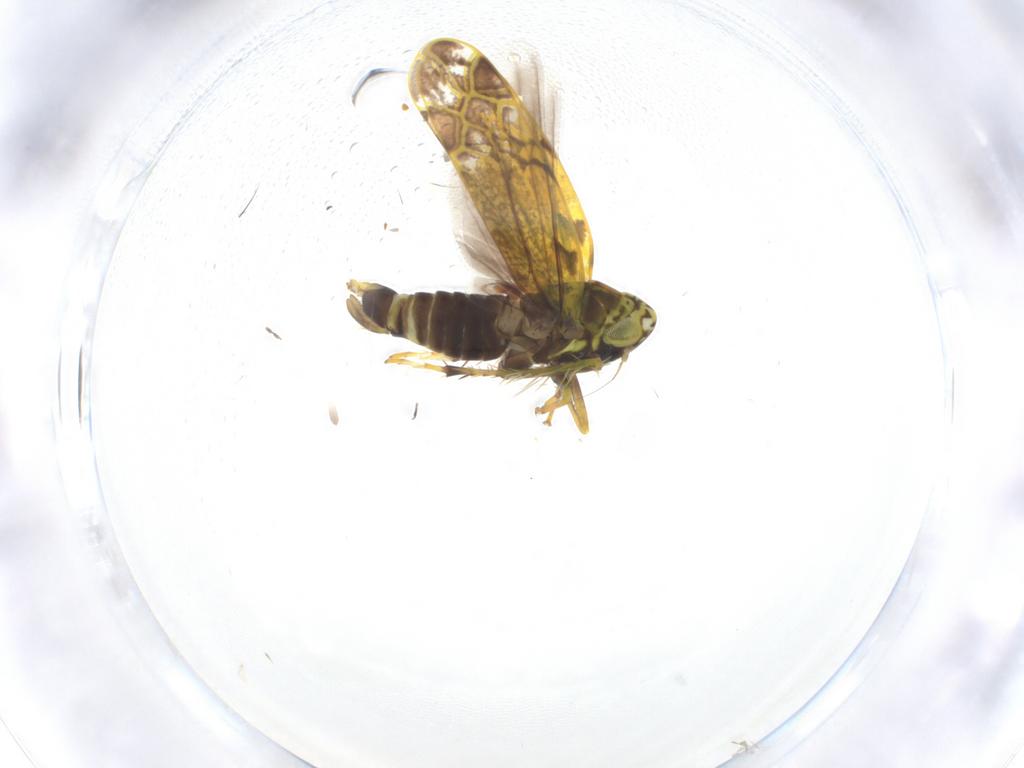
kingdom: Animalia
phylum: Arthropoda
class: Insecta
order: Hemiptera
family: Cicadellidae
